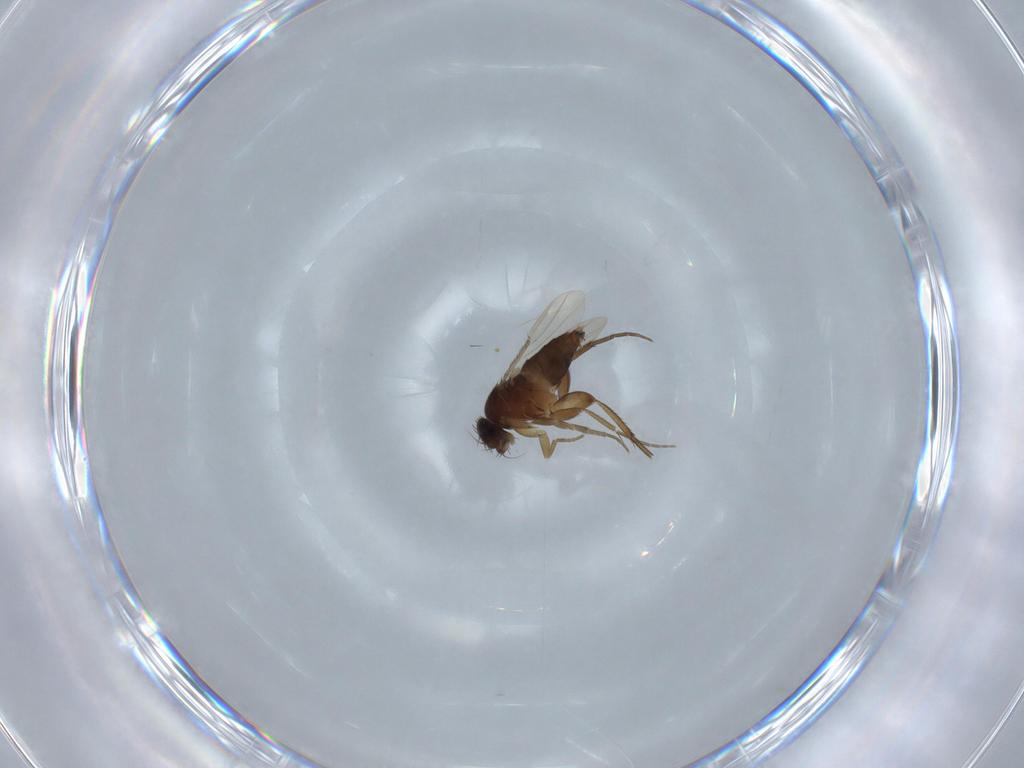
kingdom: Animalia
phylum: Arthropoda
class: Insecta
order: Diptera
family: Phoridae
